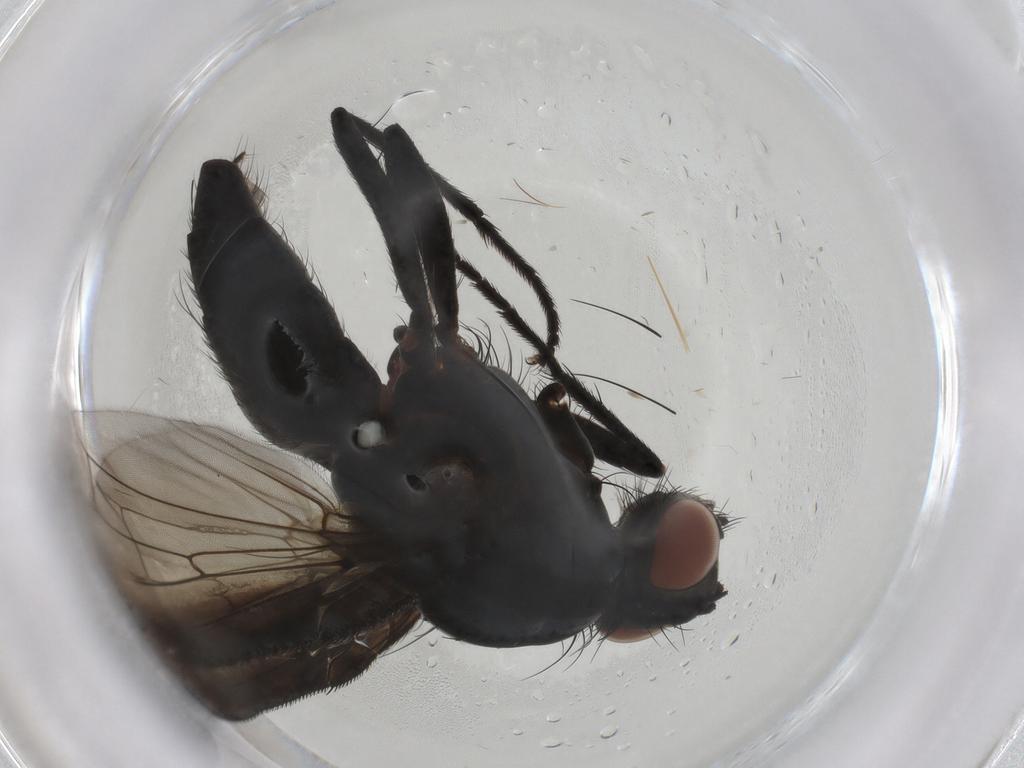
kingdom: Animalia
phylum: Arthropoda
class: Insecta
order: Diptera
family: Anthomyiidae
